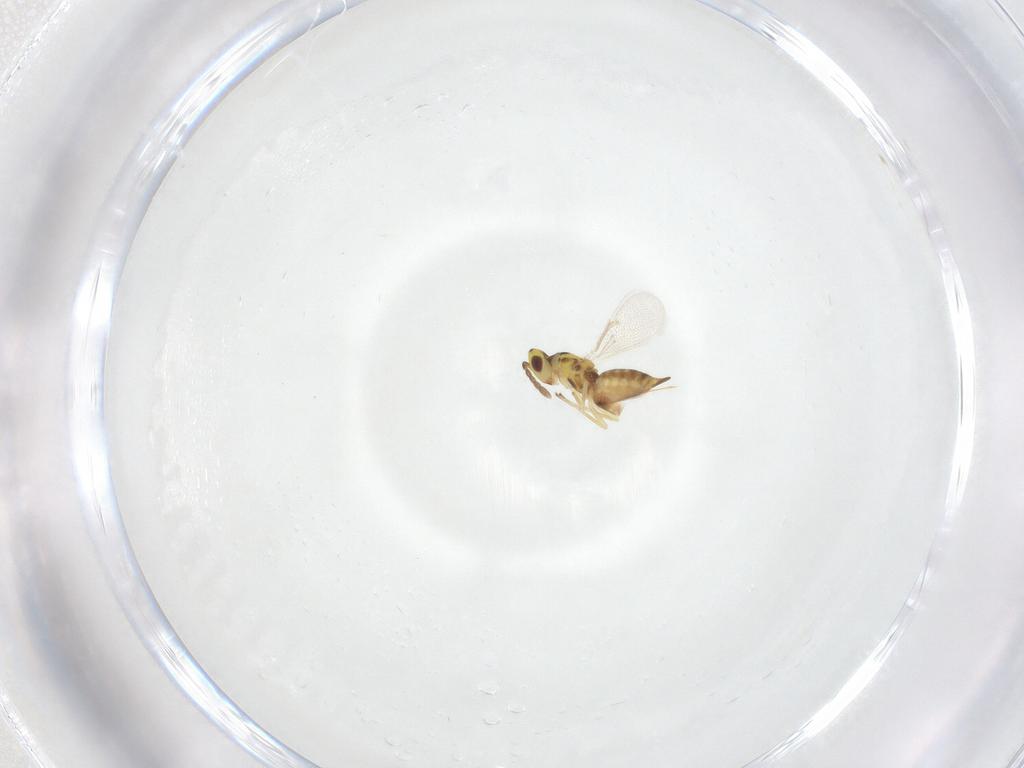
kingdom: Animalia
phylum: Arthropoda
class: Insecta
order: Hymenoptera
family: Eulophidae
